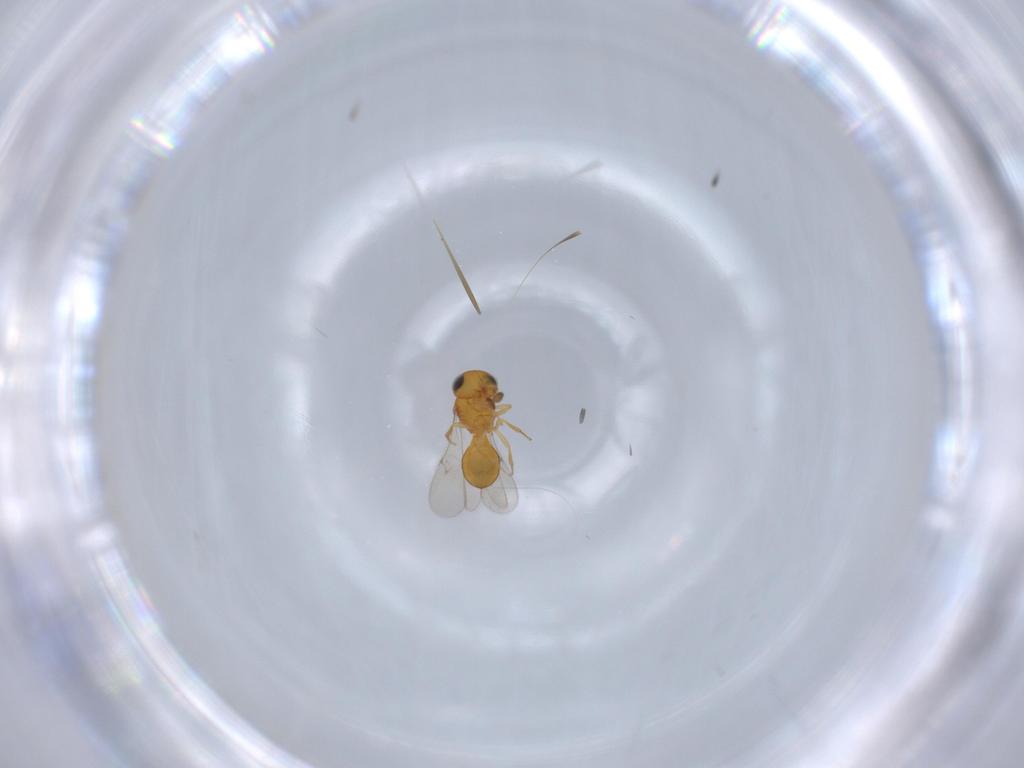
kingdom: Animalia
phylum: Arthropoda
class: Insecta
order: Hymenoptera
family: Scelionidae
